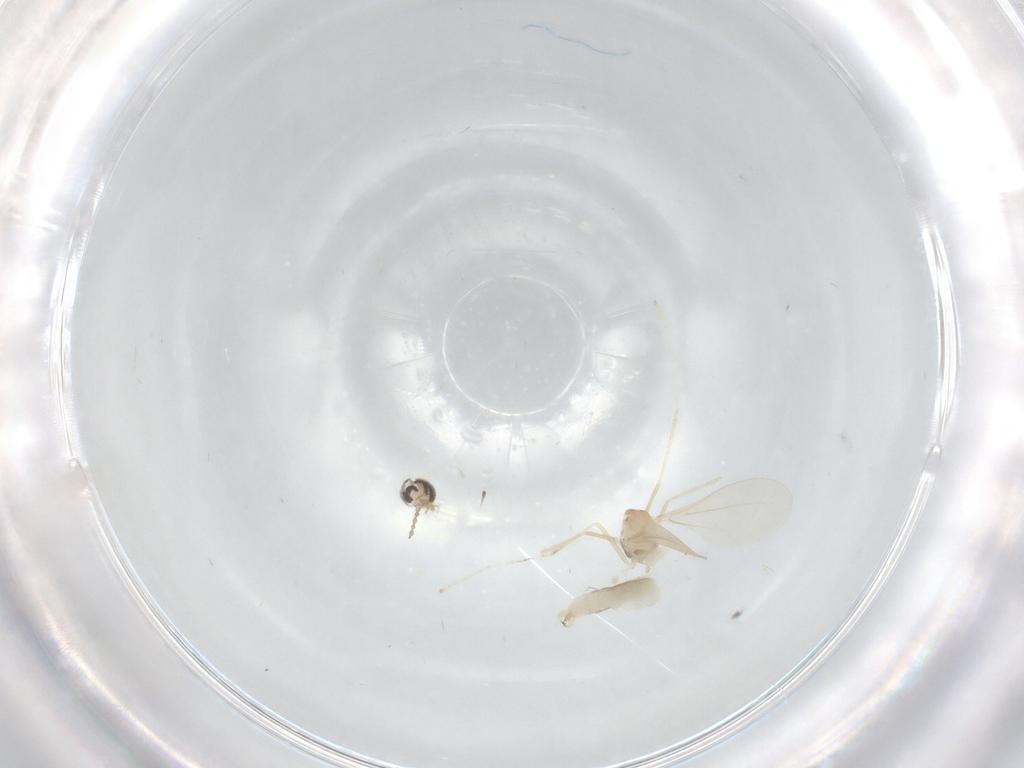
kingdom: Animalia
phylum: Arthropoda
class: Insecta
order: Diptera
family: Cecidomyiidae
